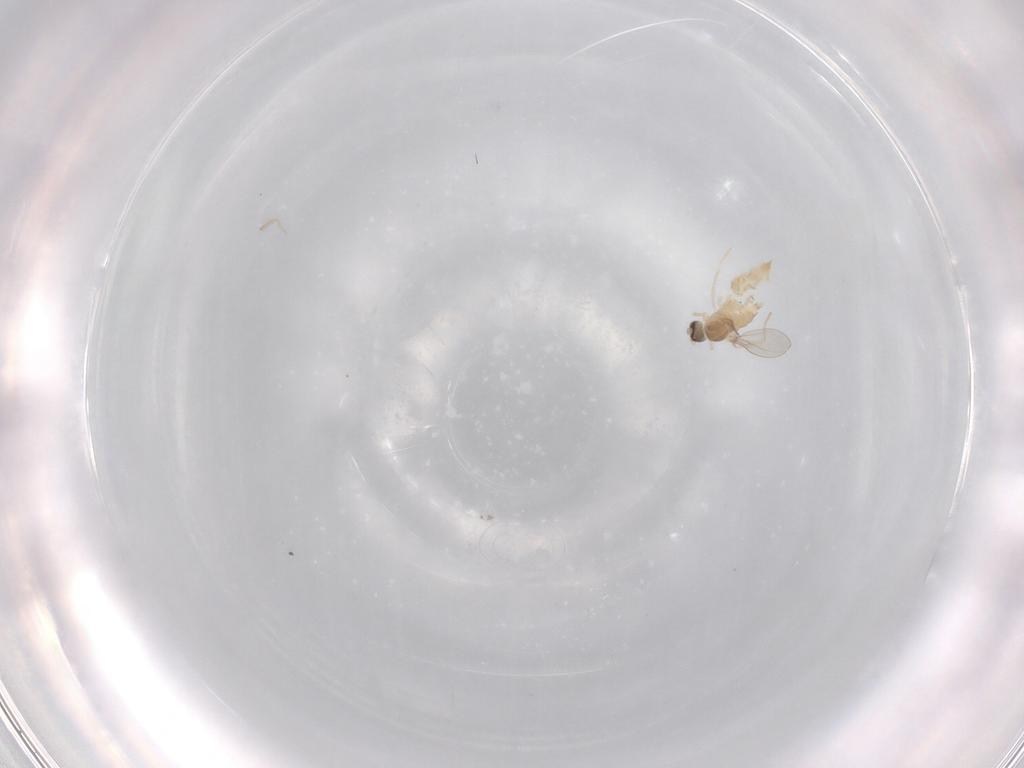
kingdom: Animalia
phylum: Arthropoda
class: Insecta
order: Diptera
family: Cecidomyiidae
